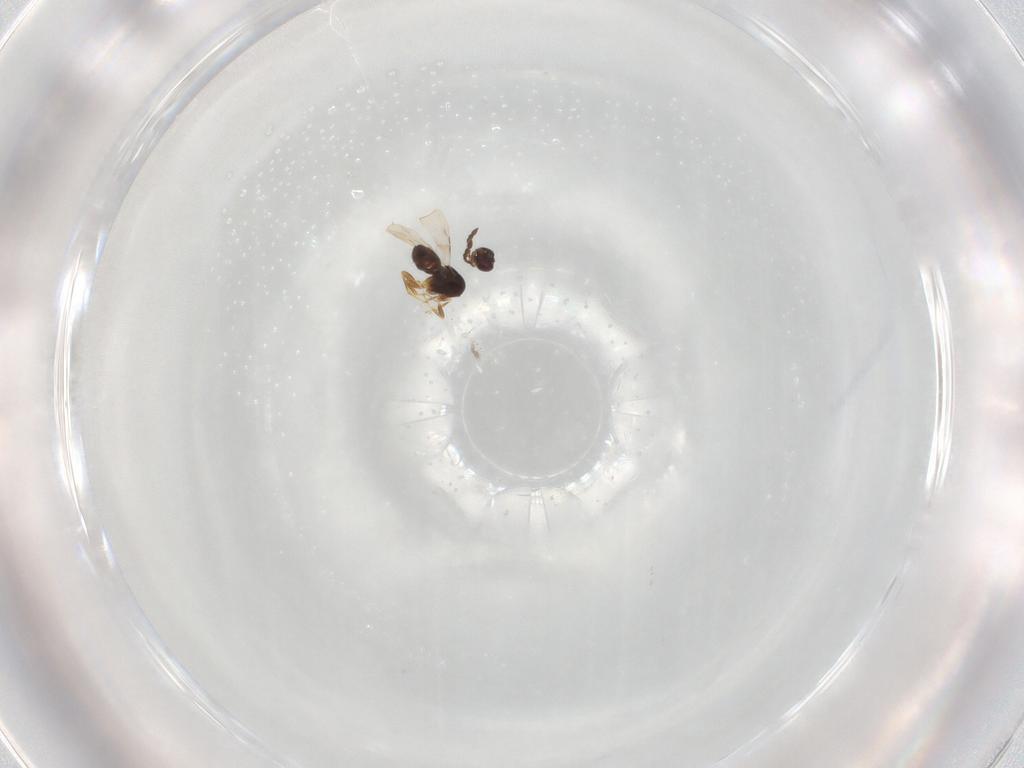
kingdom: Animalia
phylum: Arthropoda
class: Insecta
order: Hymenoptera
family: Ceraphronidae
